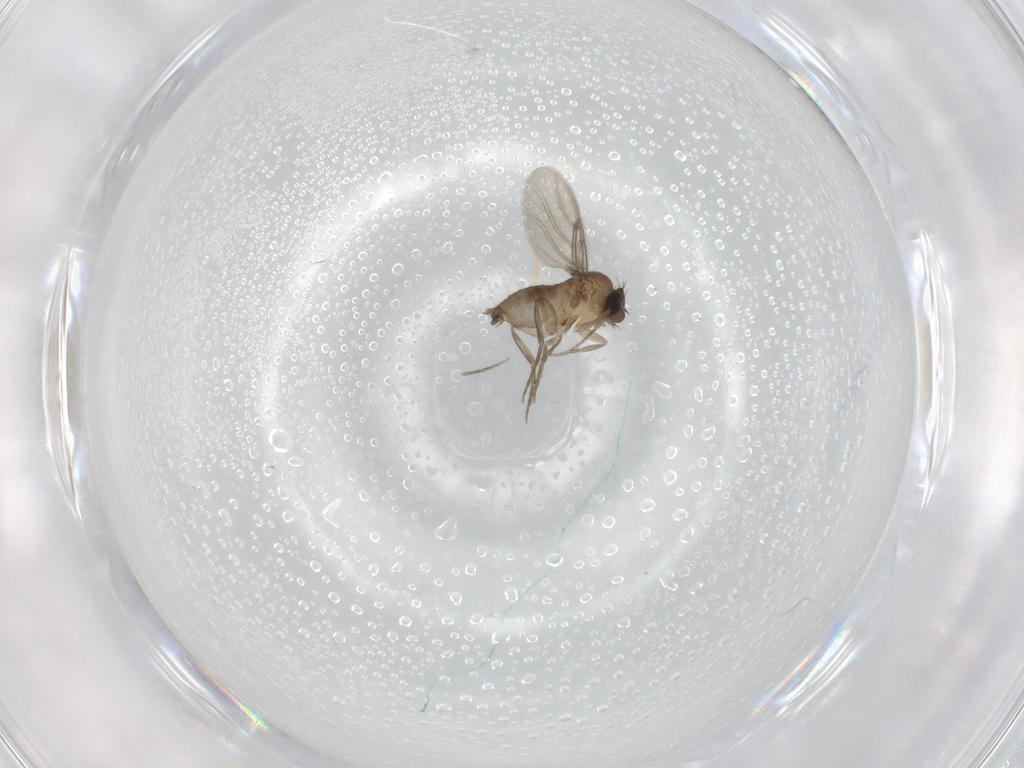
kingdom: Animalia
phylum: Arthropoda
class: Insecta
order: Diptera
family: Phoridae
